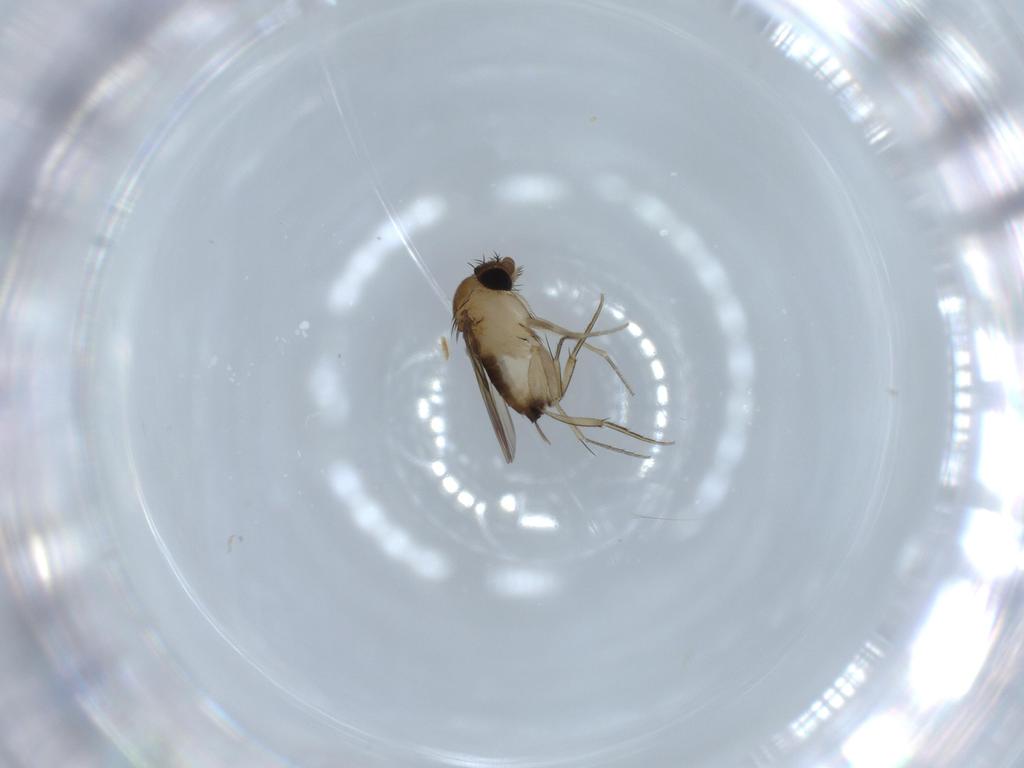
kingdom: Animalia
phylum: Arthropoda
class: Insecta
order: Diptera
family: Phoridae
